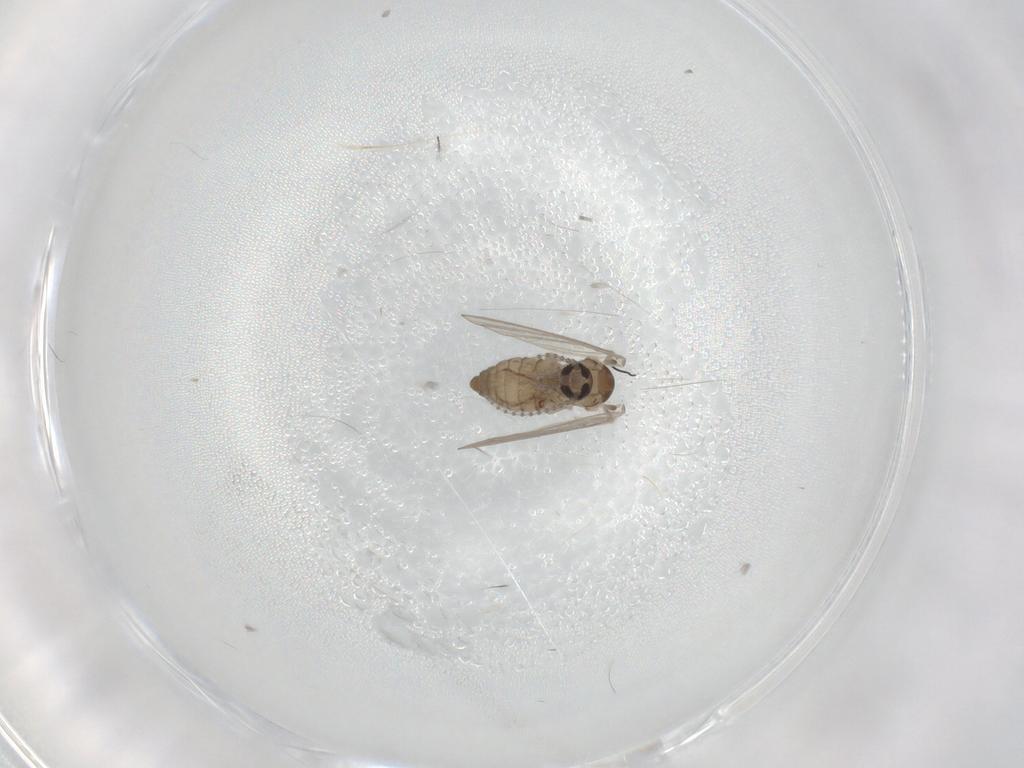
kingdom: Animalia
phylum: Arthropoda
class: Insecta
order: Diptera
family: Psychodidae
